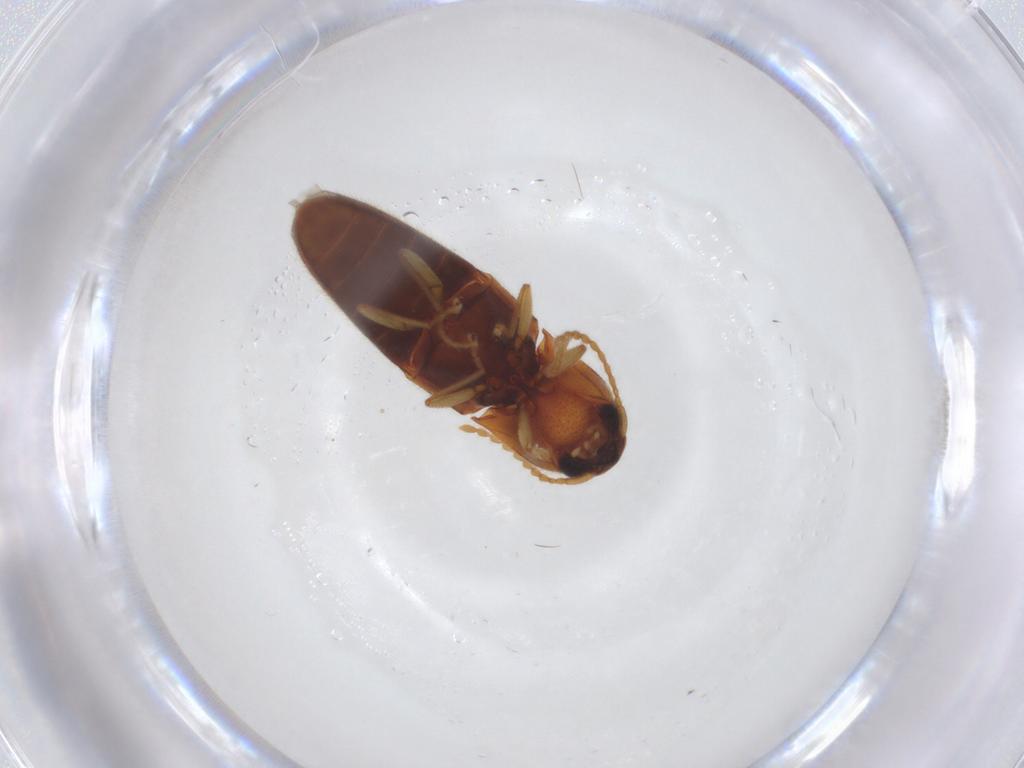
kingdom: Animalia
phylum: Arthropoda
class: Insecta
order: Coleoptera
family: Elateridae
